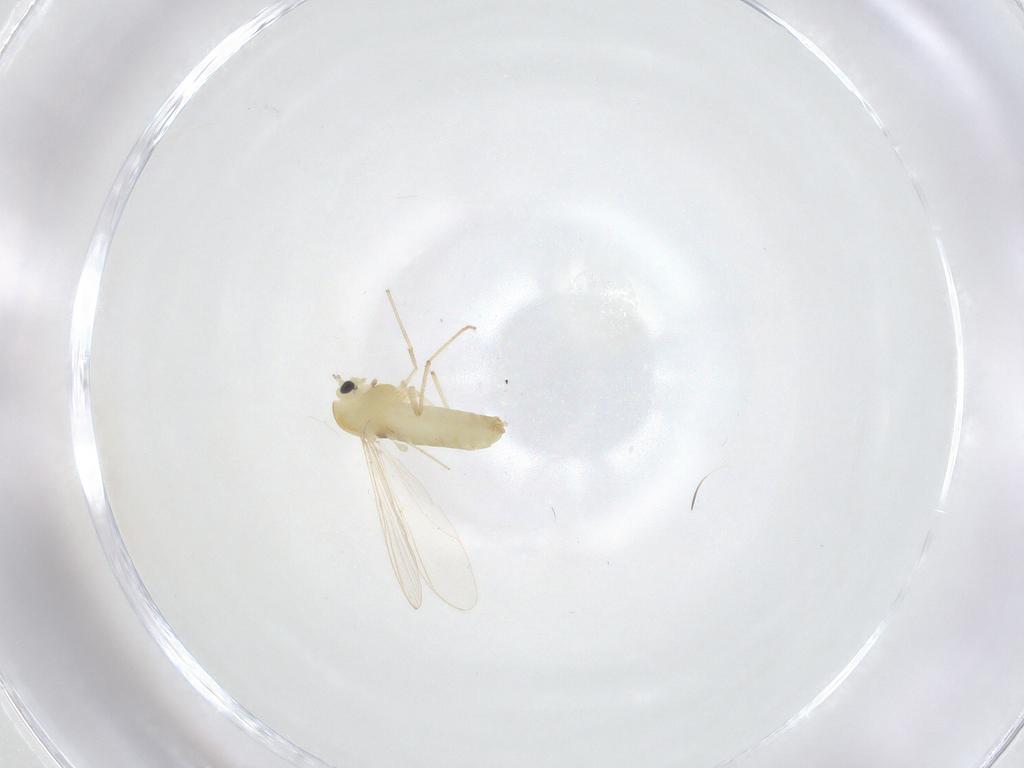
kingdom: Animalia
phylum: Arthropoda
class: Insecta
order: Diptera
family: Chironomidae
